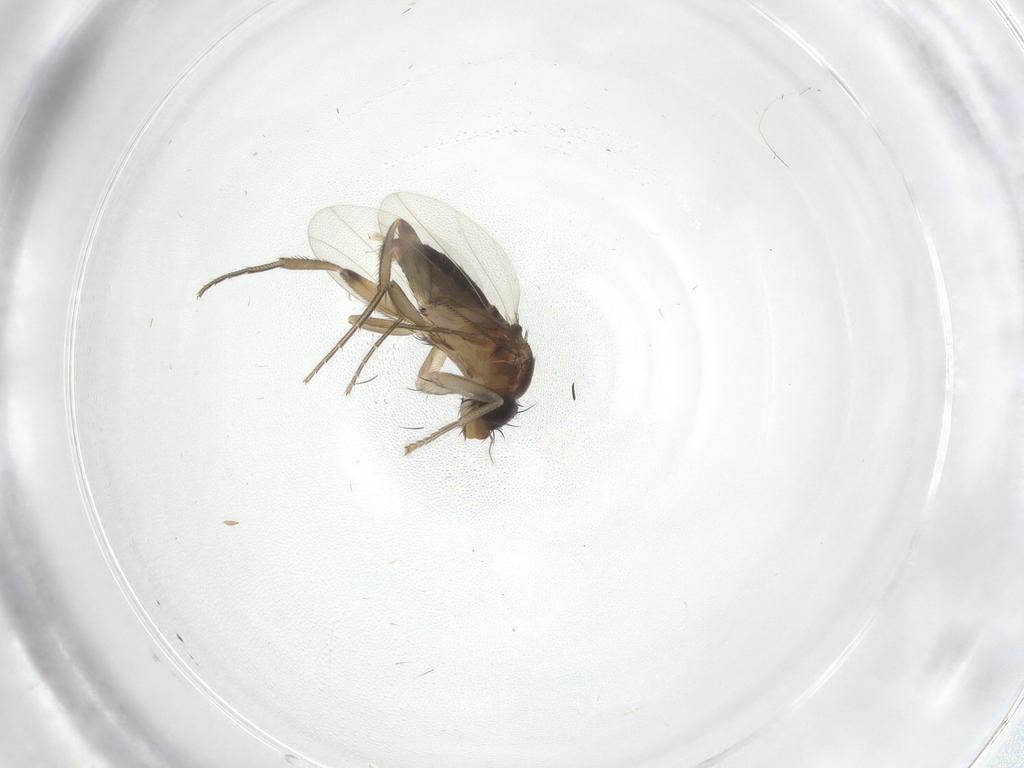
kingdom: Animalia
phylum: Arthropoda
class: Insecta
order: Diptera
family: Phoridae
